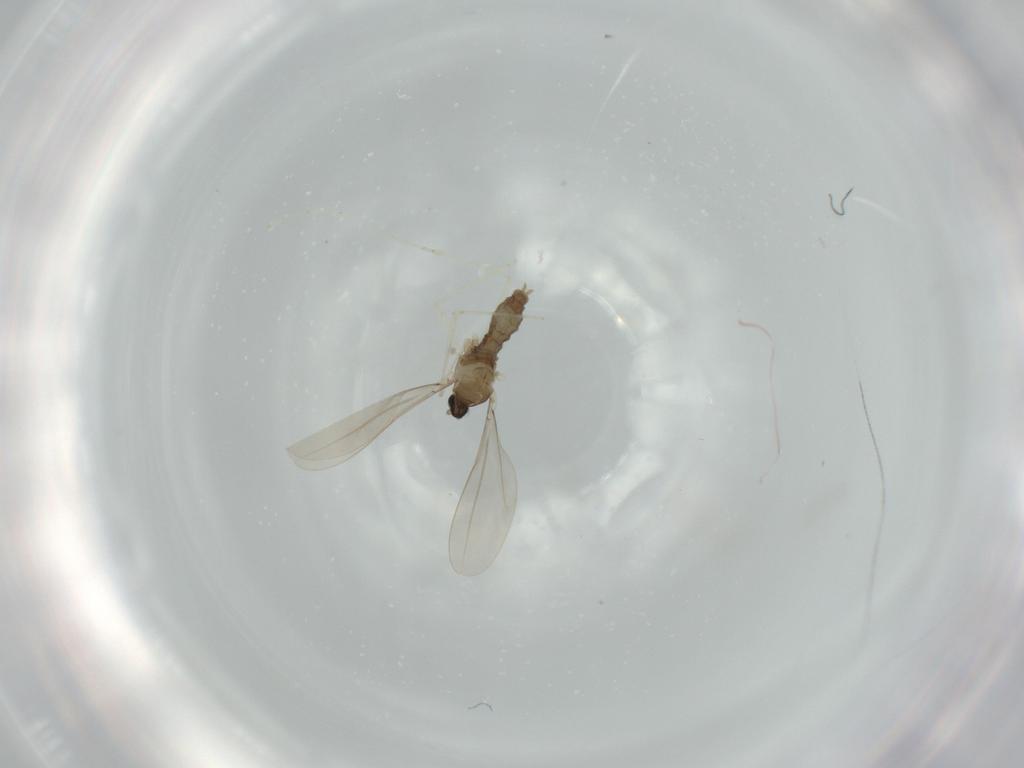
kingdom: Animalia
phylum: Arthropoda
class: Insecta
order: Diptera
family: Sciaridae
